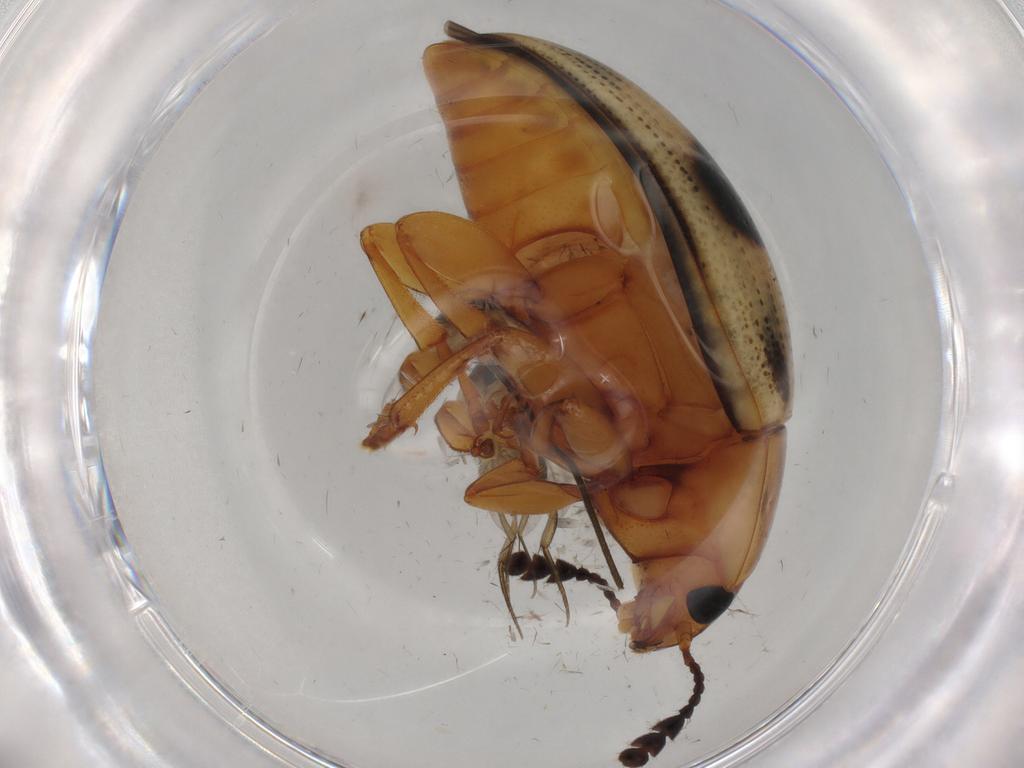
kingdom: Animalia
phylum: Arthropoda
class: Insecta
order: Coleoptera
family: Erotylidae
